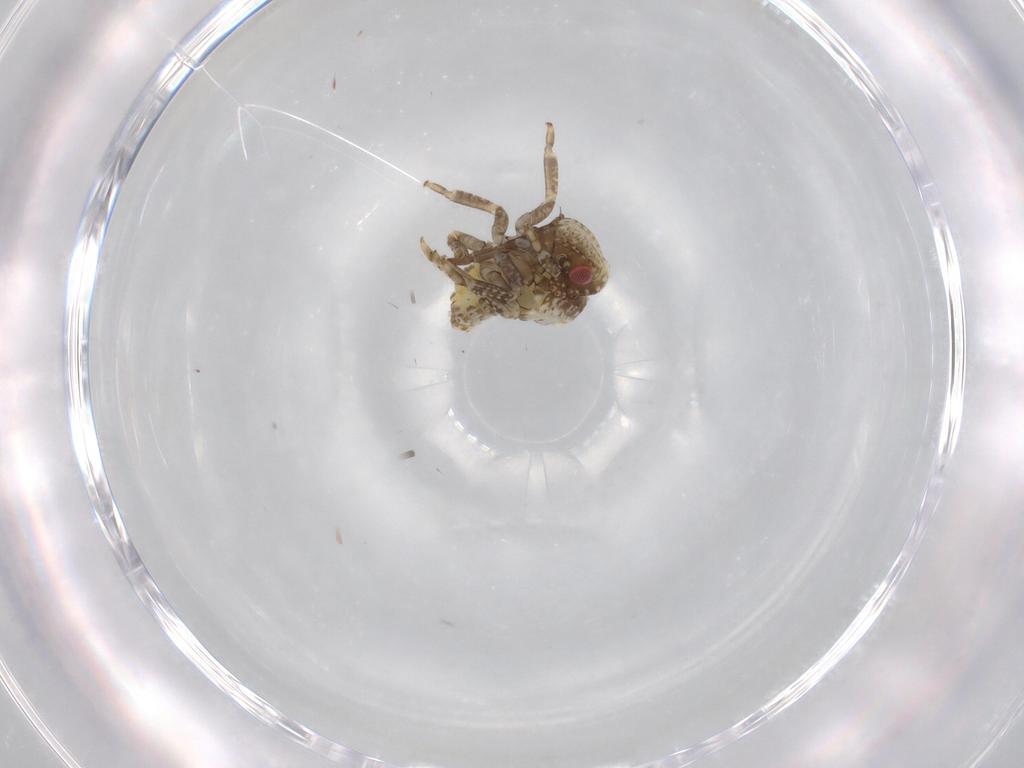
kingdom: Animalia
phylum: Arthropoda
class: Insecta
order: Hemiptera
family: Acanaloniidae
